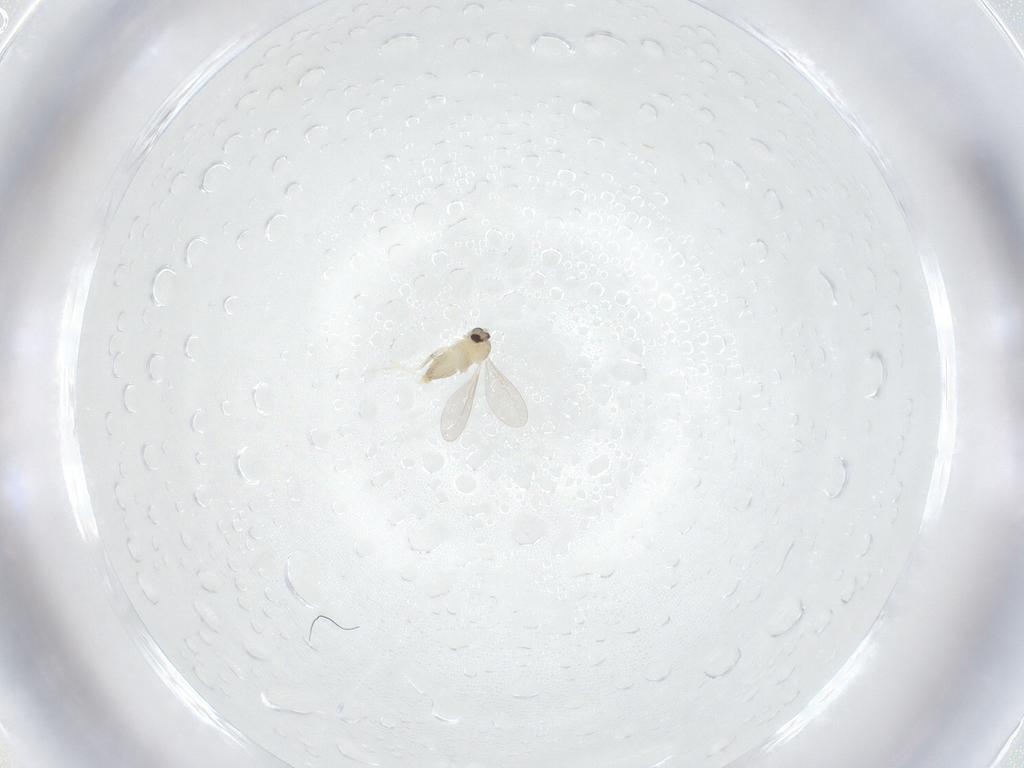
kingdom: Animalia
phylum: Arthropoda
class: Insecta
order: Diptera
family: Cecidomyiidae
